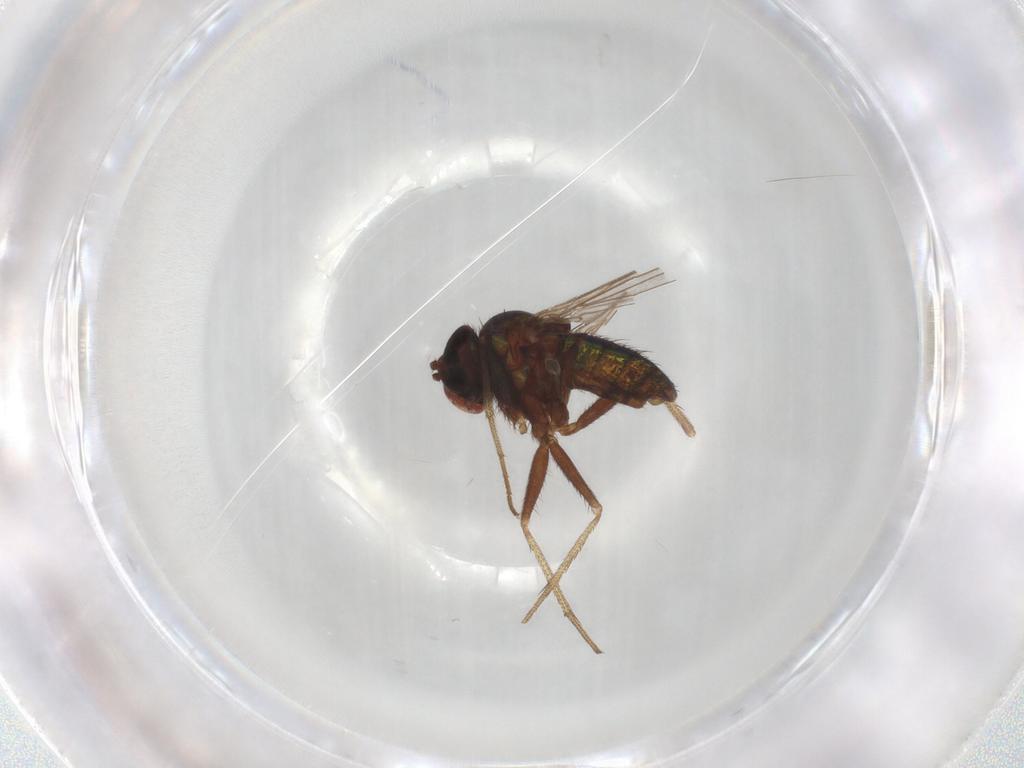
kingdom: Animalia
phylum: Arthropoda
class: Insecta
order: Diptera
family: Dolichopodidae
